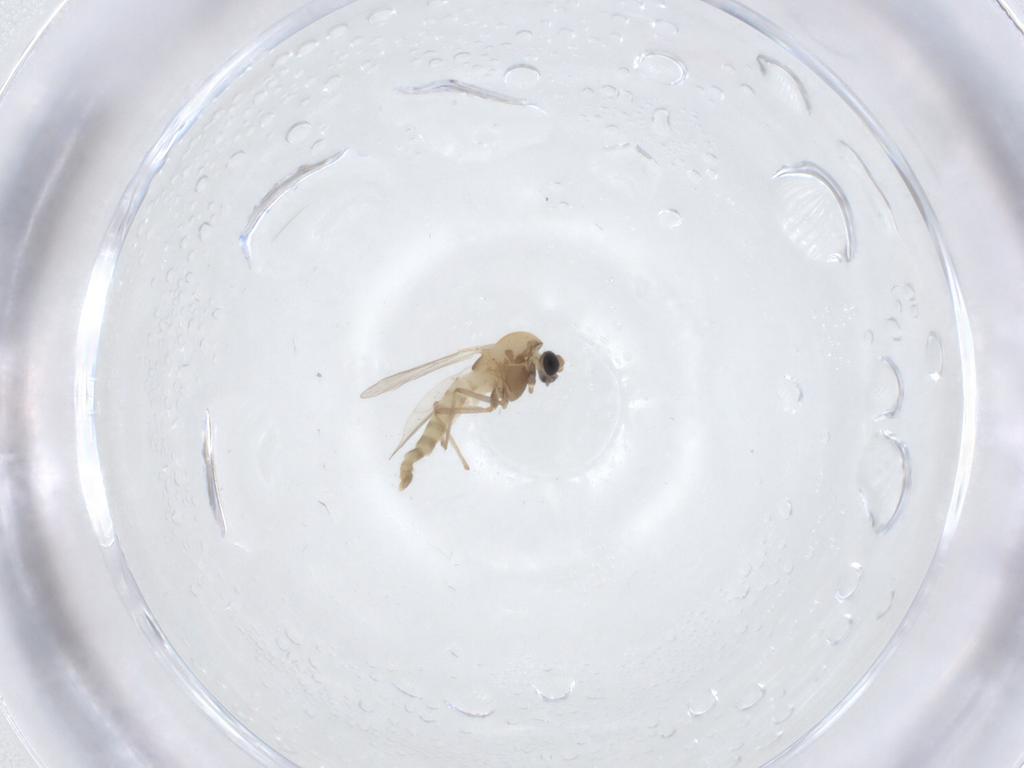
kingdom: Animalia
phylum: Arthropoda
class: Insecta
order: Diptera
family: Chironomidae
